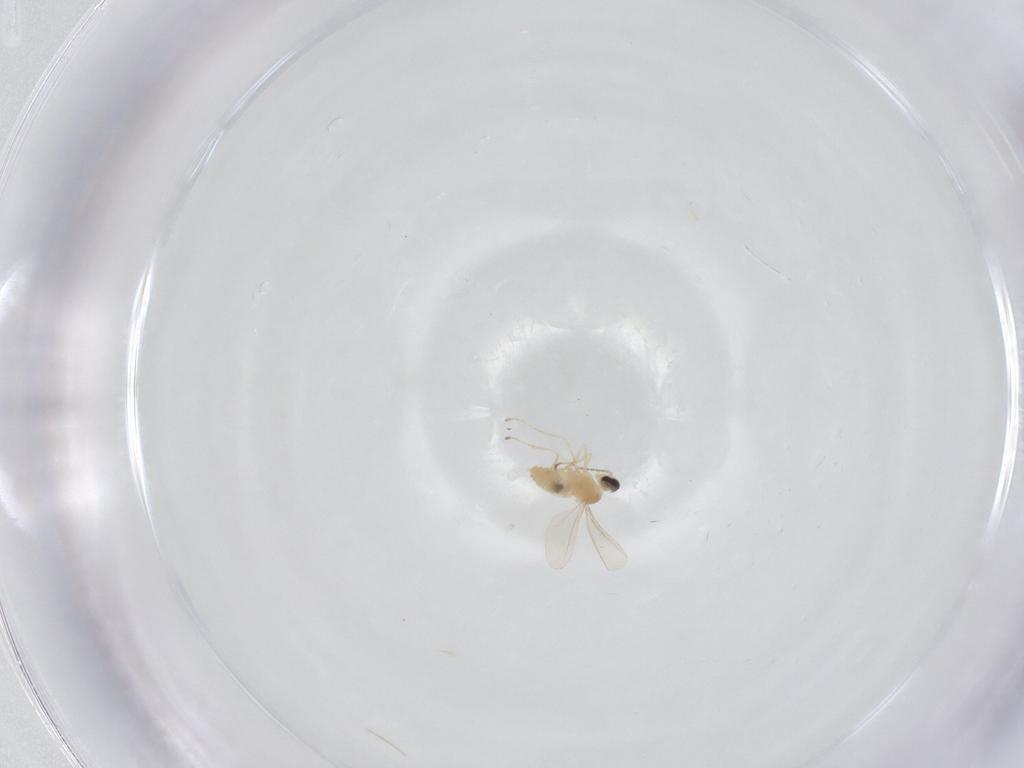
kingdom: Animalia
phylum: Arthropoda
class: Insecta
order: Diptera
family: Cecidomyiidae
